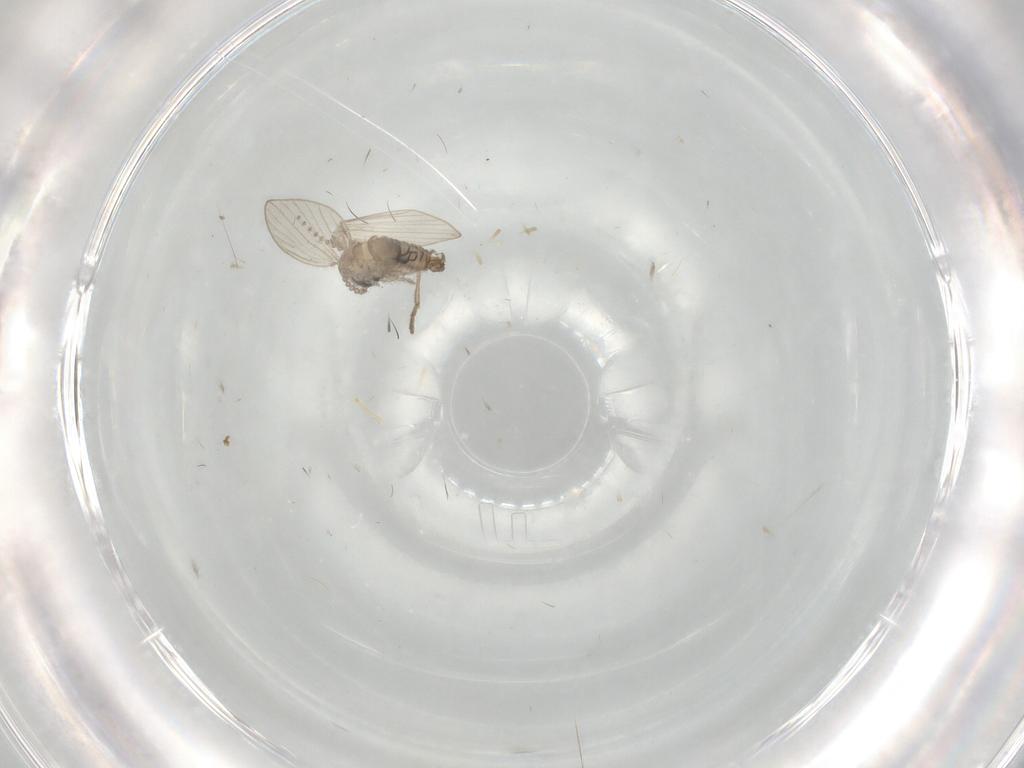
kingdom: Animalia
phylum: Arthropoda
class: Insecta
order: Diptera
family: Psychodidae
